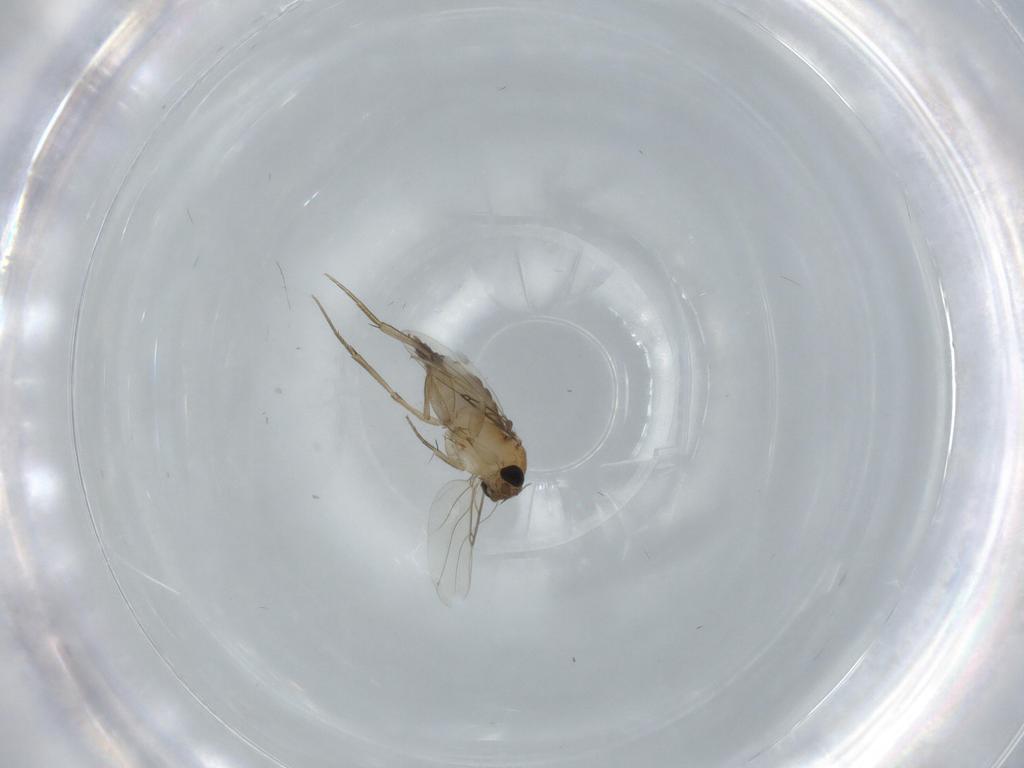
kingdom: Animalia
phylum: Arthropoda
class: Insecta
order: Diptera
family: Phoridae
